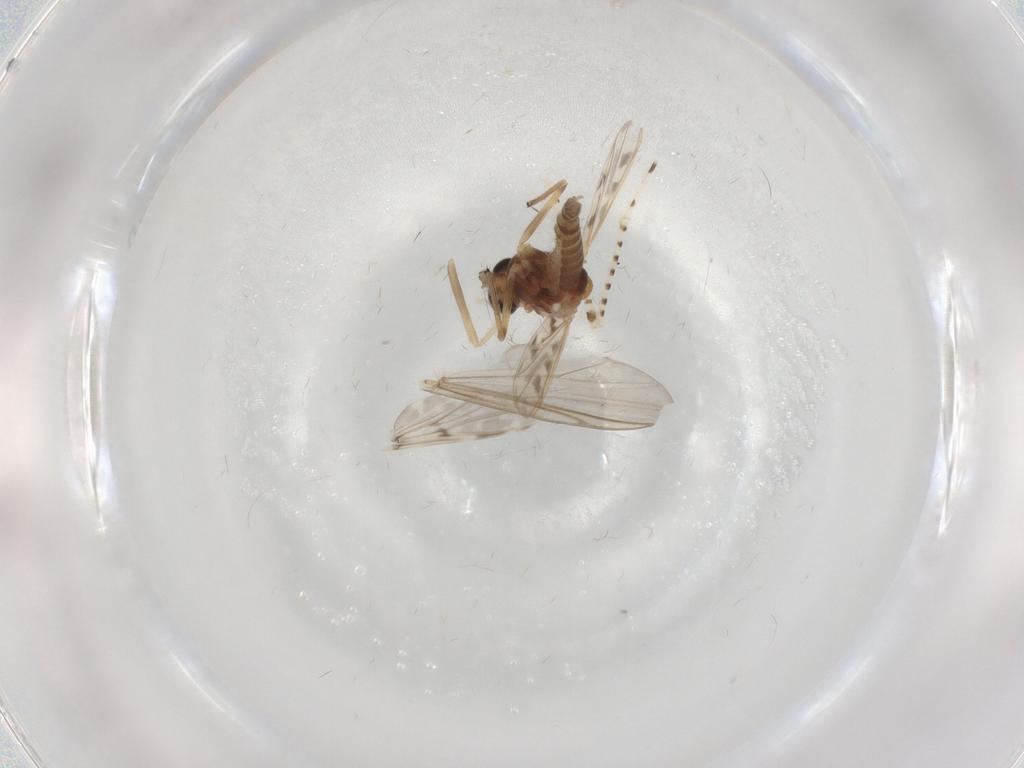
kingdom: Animalia
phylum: Arthropoda
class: Insecta
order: Diptera
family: Chironomidae
